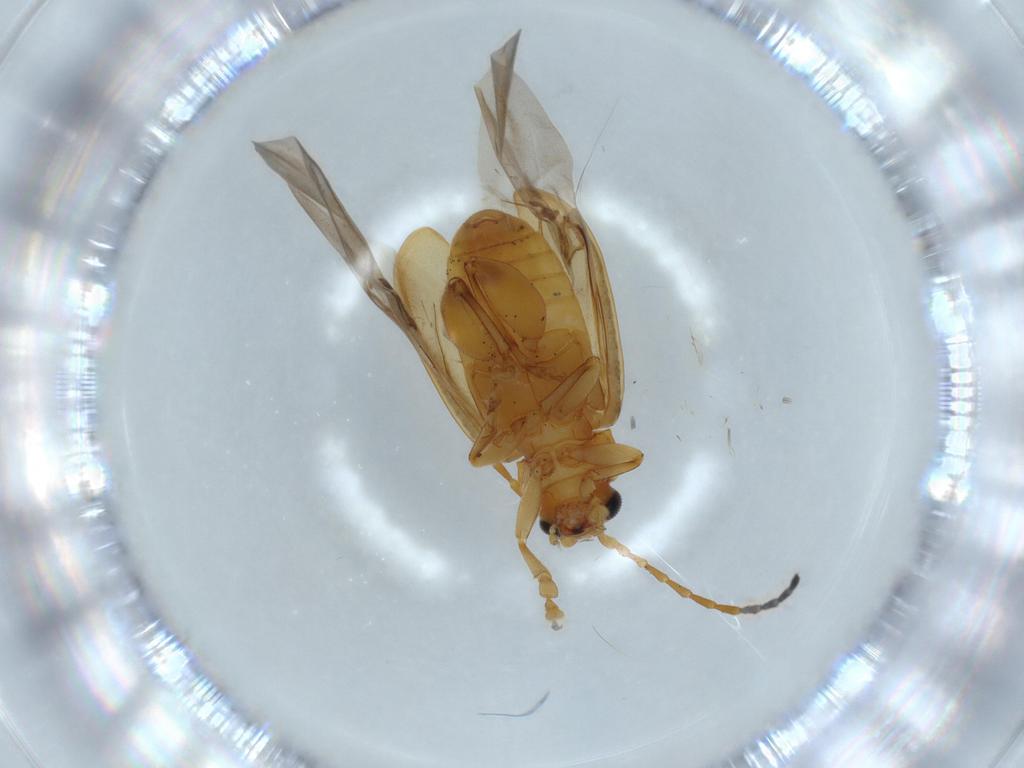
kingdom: Animalia
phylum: Arthropoda
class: Insecta
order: Coleoptera
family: Chrysomelidae
